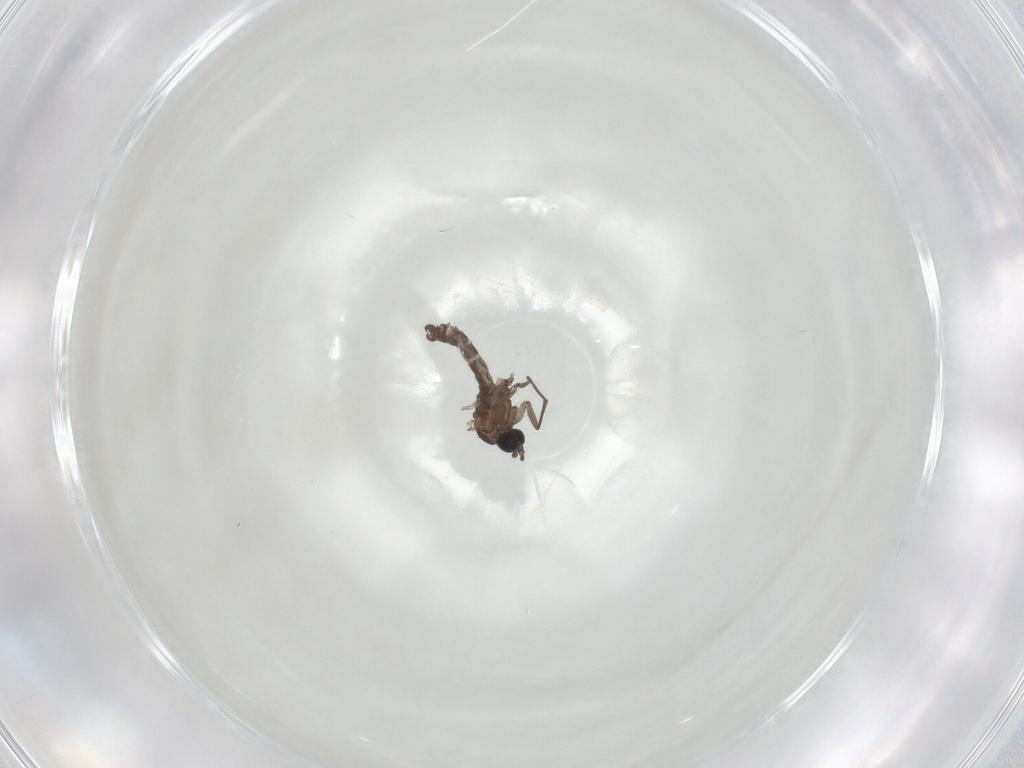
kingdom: Animalia
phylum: Arthropoda
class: Insecta
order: Diptera
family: Sciaridae
